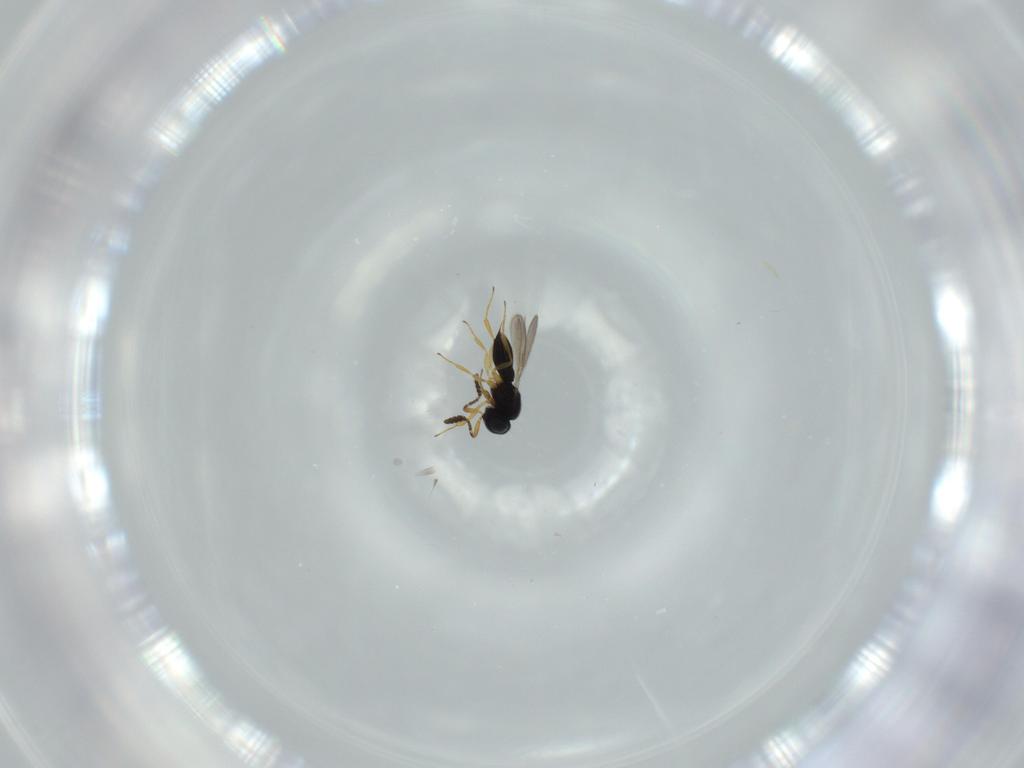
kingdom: Animalia
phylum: Arthropoda
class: Insecta
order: Hymenoptera
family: Scelionidae
